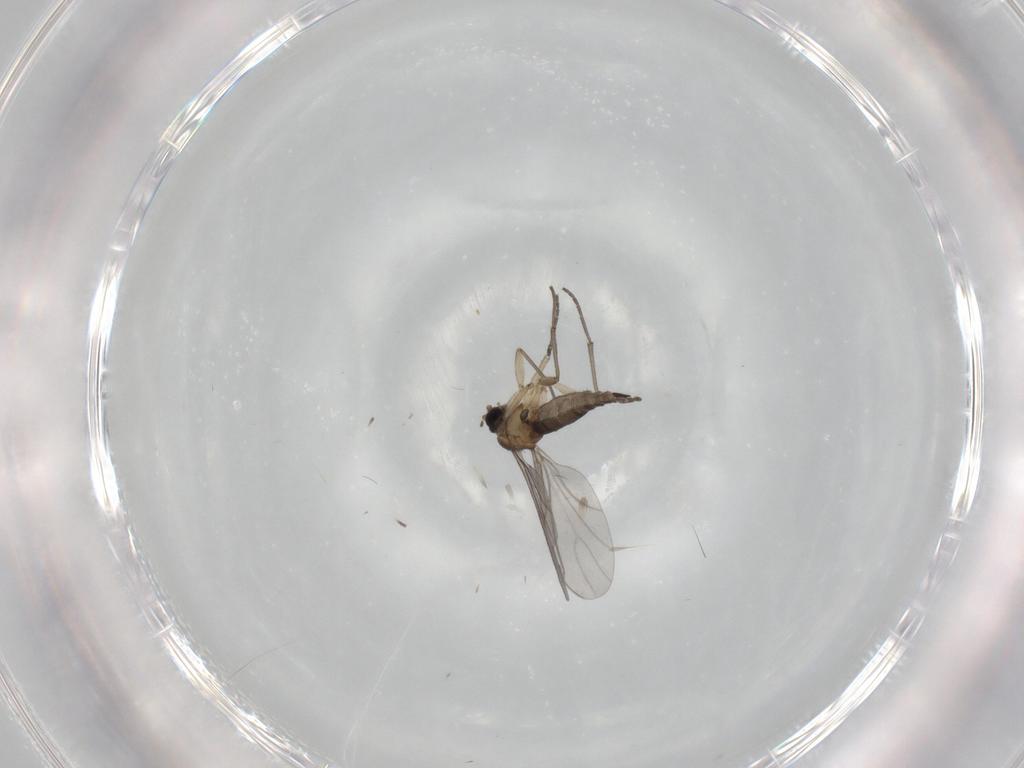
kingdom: Animalia
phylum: Arthropoda
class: Insecta
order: Diptera
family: Sciaridae
